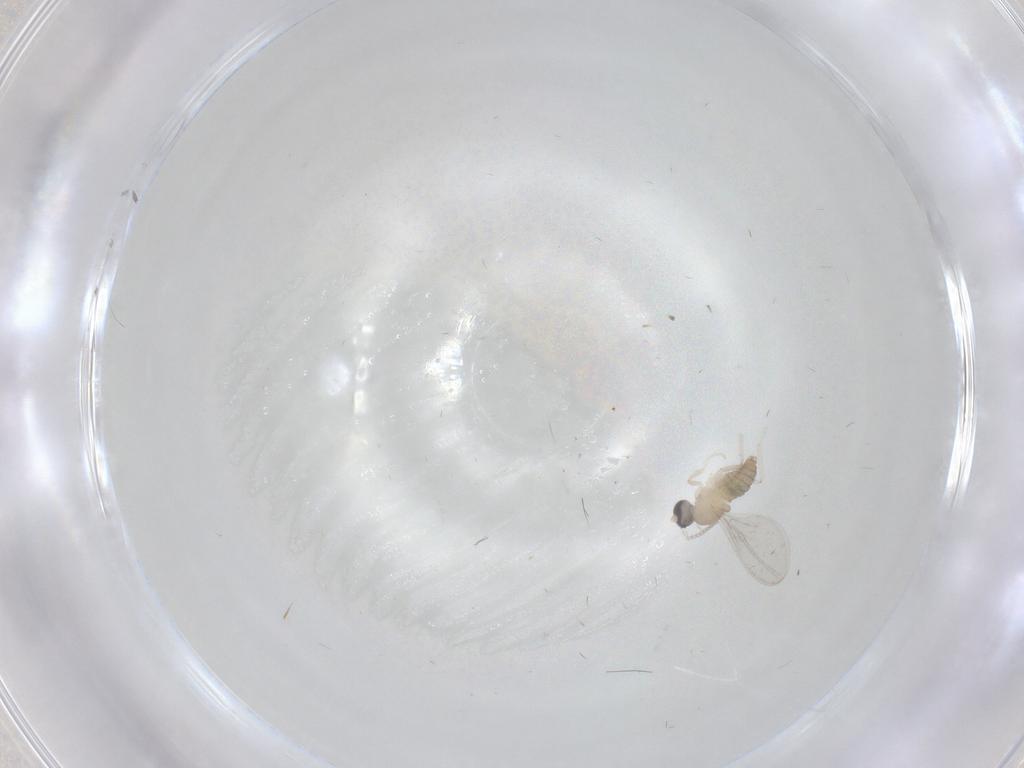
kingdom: Animalia
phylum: Arthropoda
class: Insecta
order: Diptera
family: Cecidomyiidae
